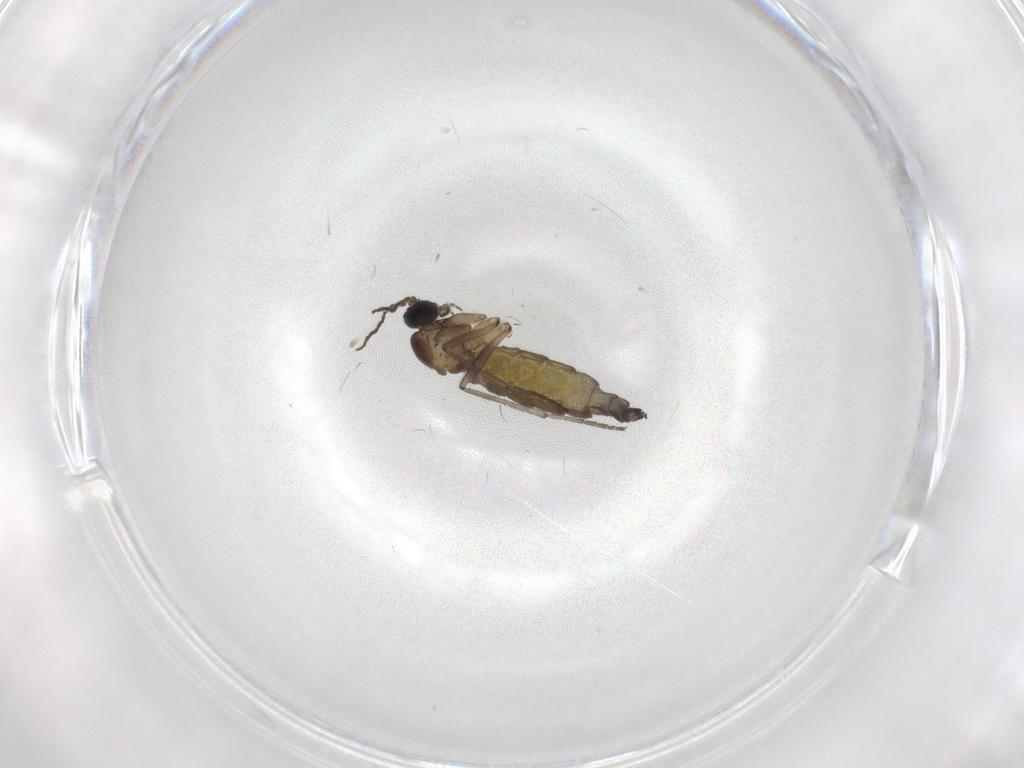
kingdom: Animalia
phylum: Arthropoda
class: Insecta
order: Diptera
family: Sciaridae
